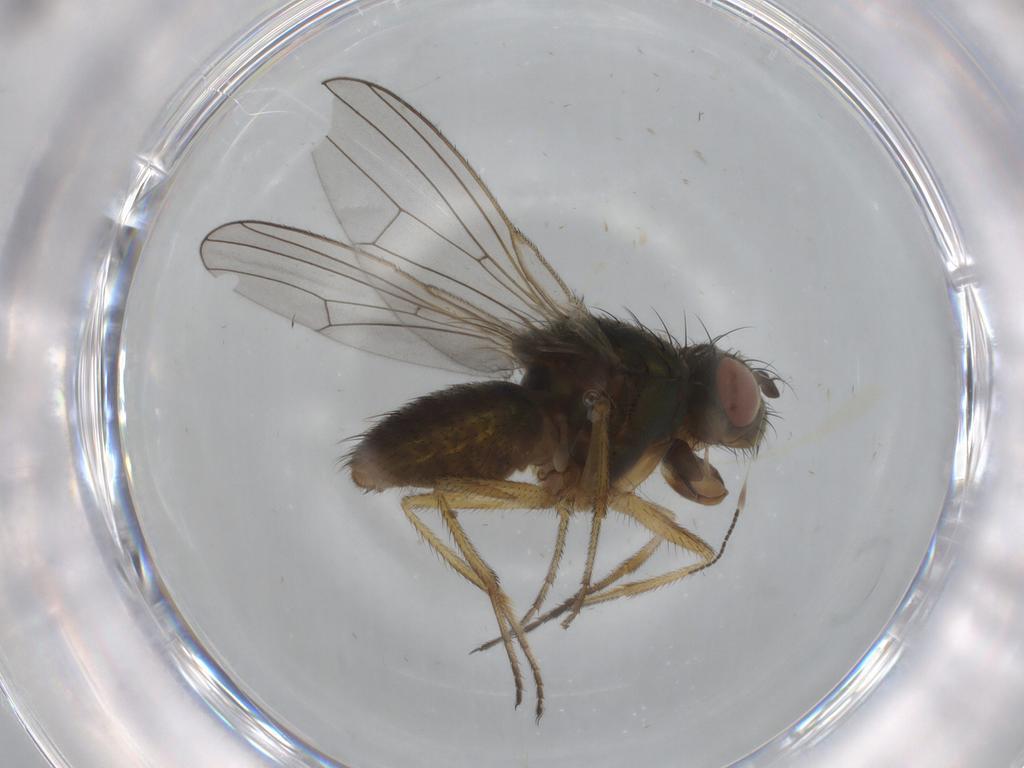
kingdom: Animalia
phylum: Arthropoda
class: Insecta
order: Diptera
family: Ephydridae
